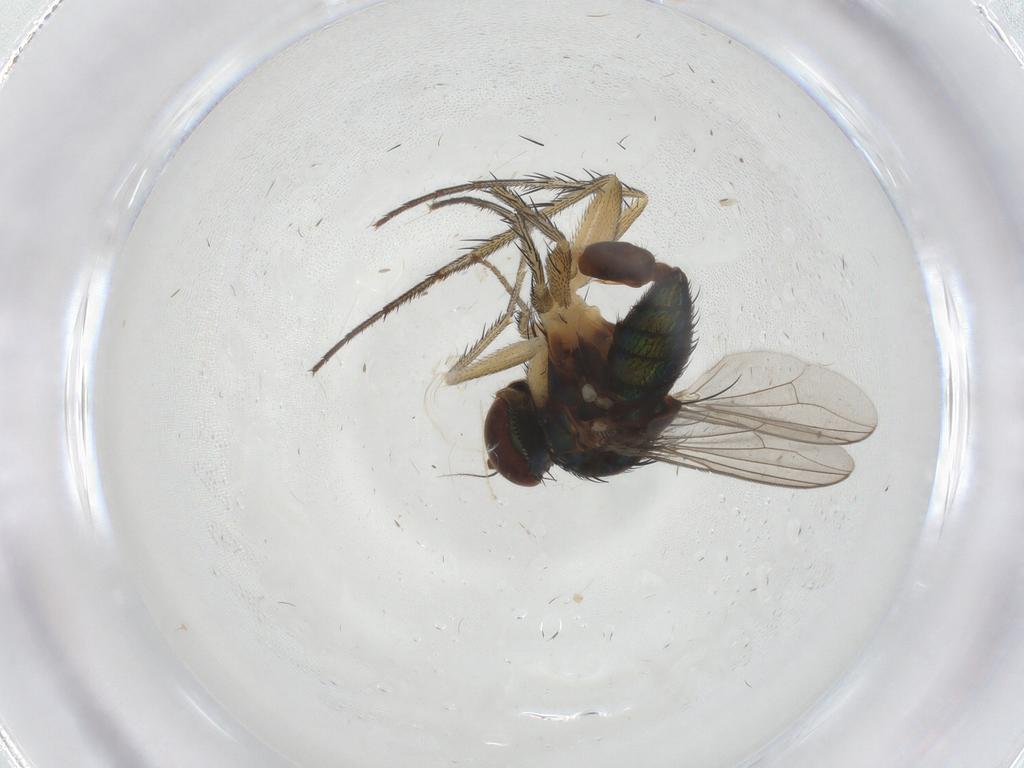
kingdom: Animalia
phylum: Arthropoda
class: Insecta
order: Diptera
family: Dolichopodidae
